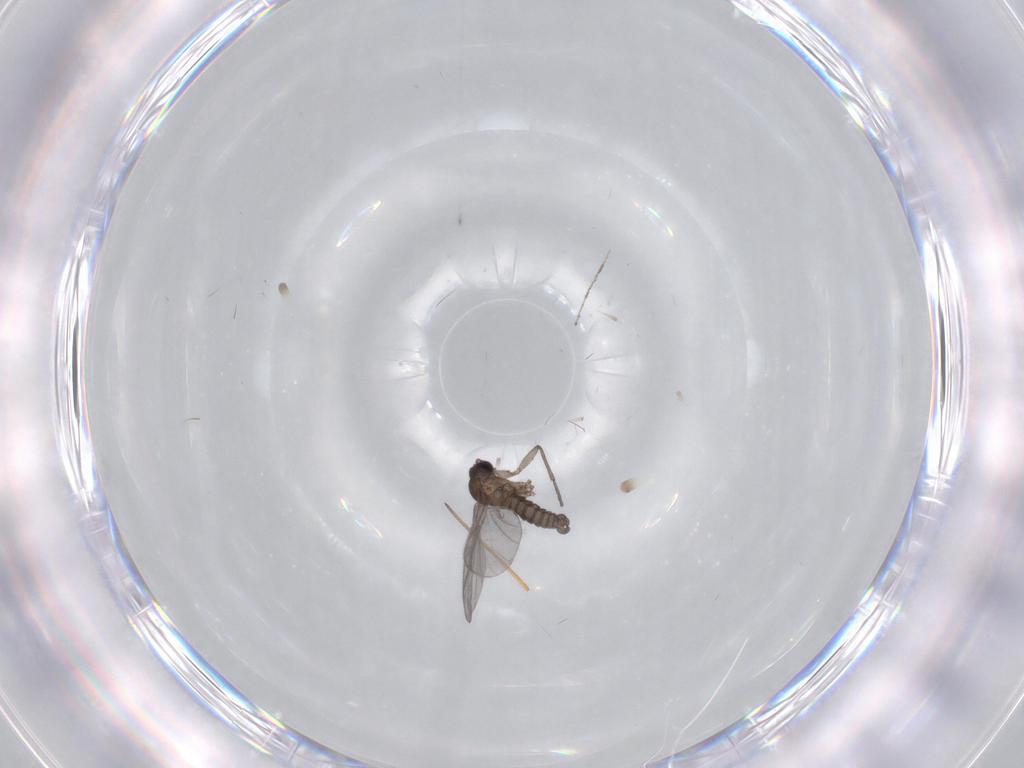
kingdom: Animalia
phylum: Arthropoda
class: Insecta
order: Diptera
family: Sciaridae
